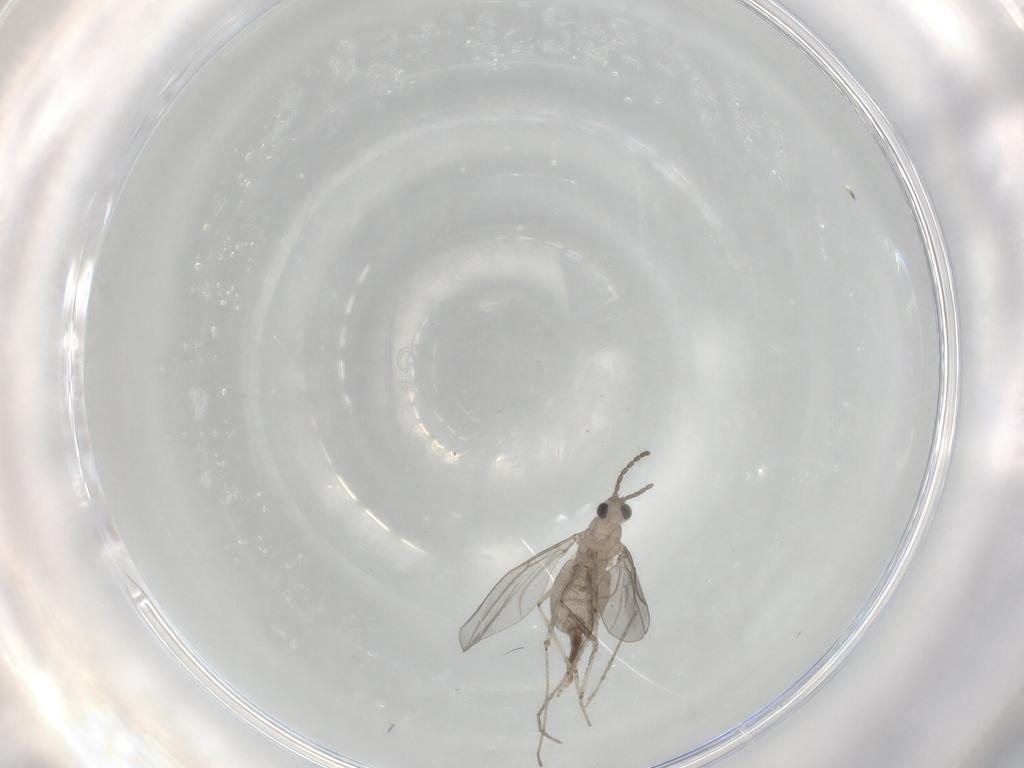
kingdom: Animalia
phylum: Arthropoda
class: Insecta
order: Diptera
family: Cecidomyiidae
